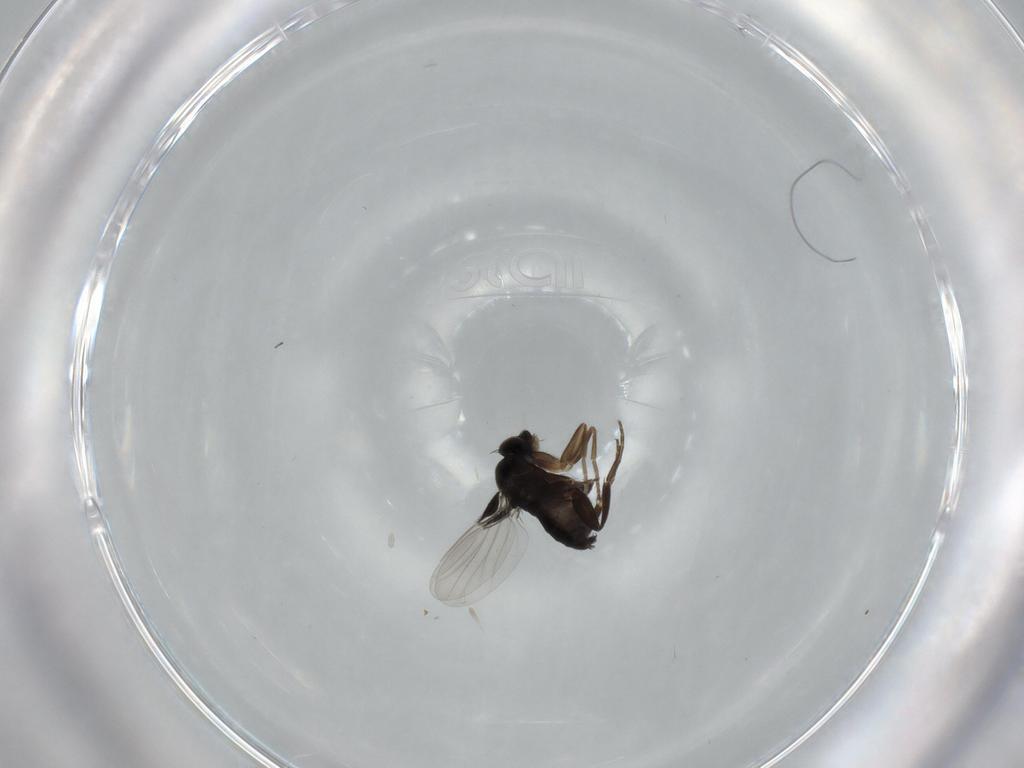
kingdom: Animalia
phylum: Arthropoda
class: Insecta
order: Diptera
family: Phoridae
